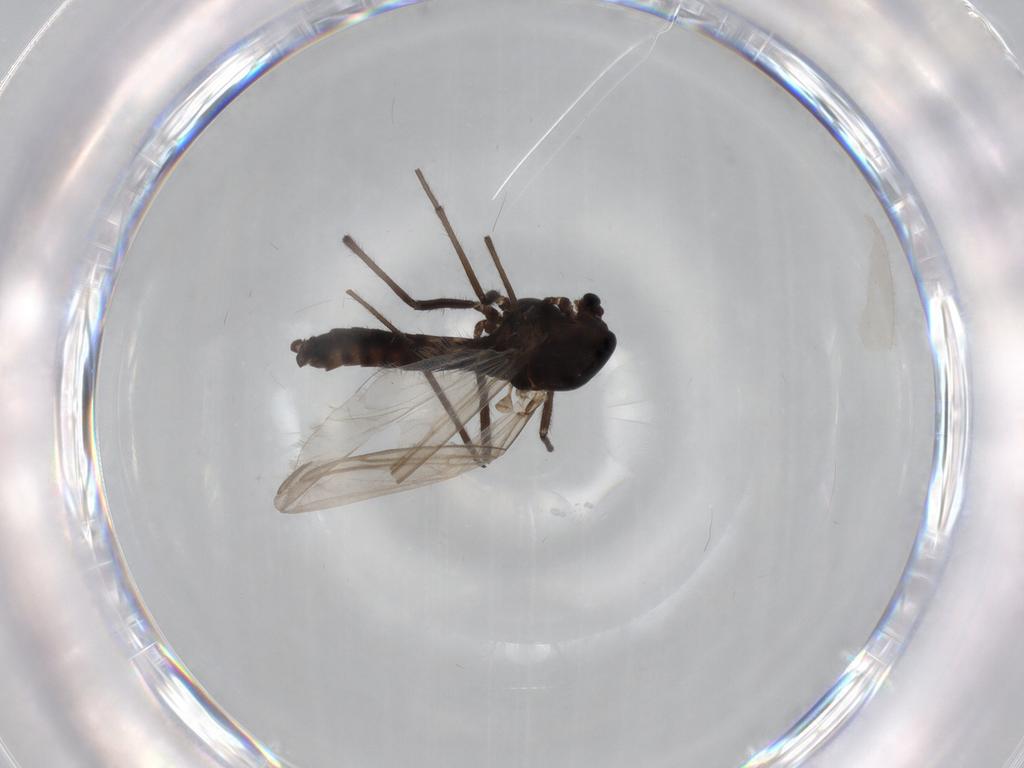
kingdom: Animalia
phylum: Arthropoda
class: Insecta
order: Diptera
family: Chironomidae
